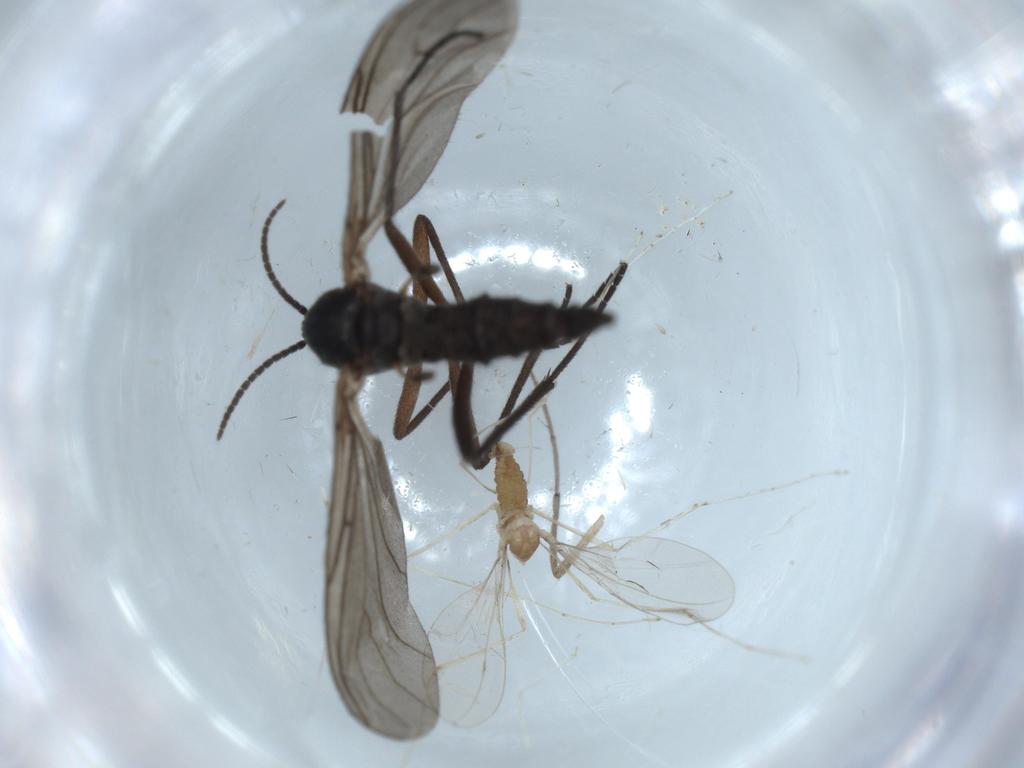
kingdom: Animalia
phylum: Arthropoda
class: Insecta
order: Diptera
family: Sciaridae
